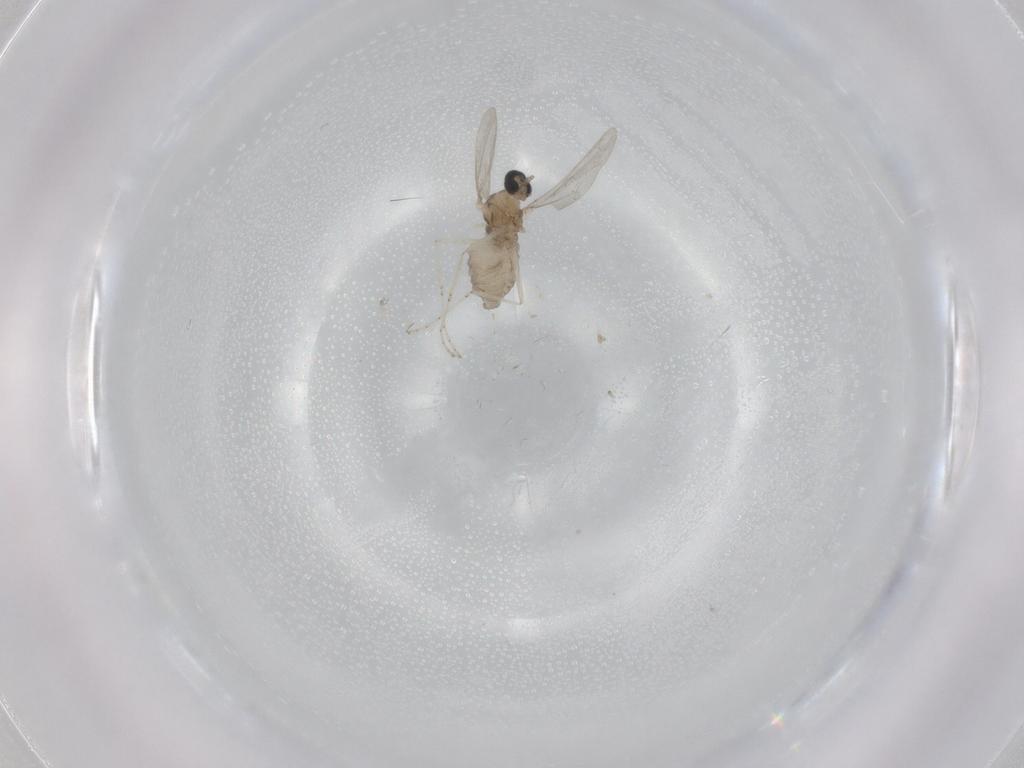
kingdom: Animalia
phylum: Arthropoda
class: Insecta
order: Diptera
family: Cecidomyiidae
